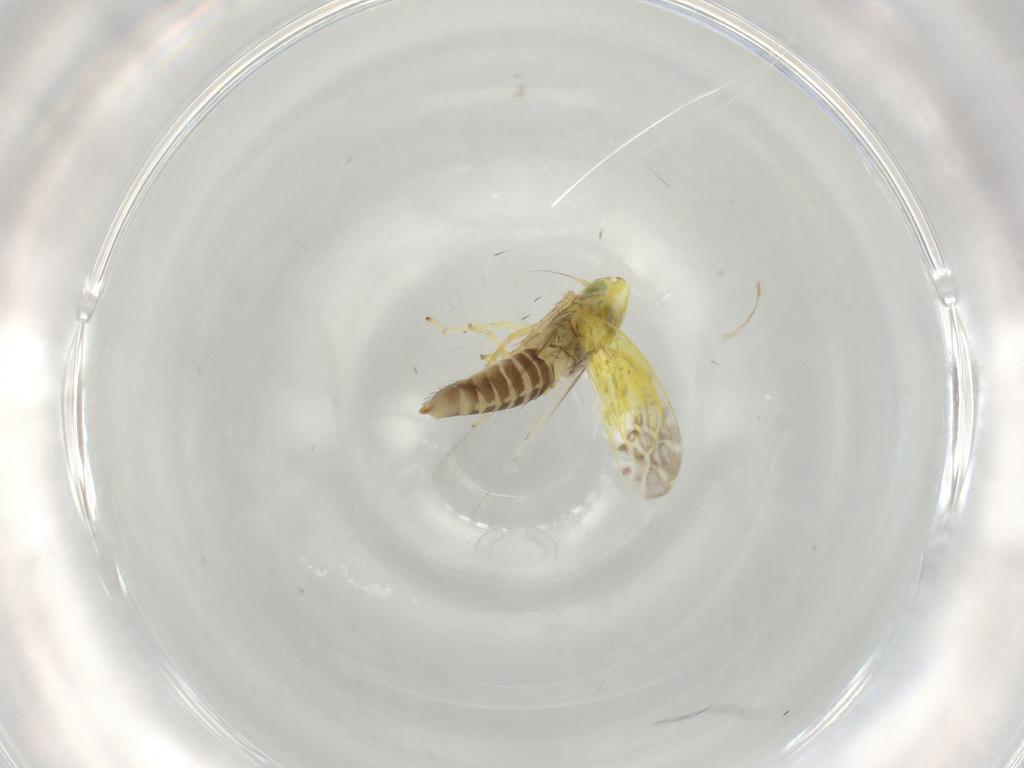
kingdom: Animalia
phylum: Arthropoda
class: Insecta
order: Hemiptera
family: Cicadellidae
